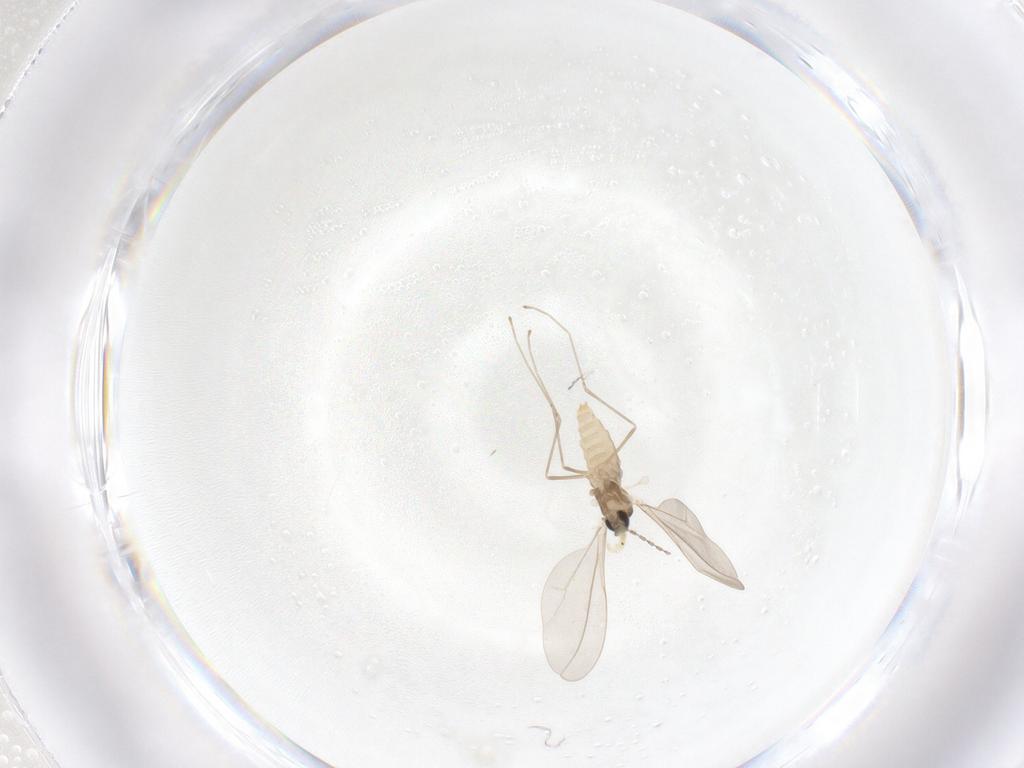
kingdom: Animalia
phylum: Arthropoda
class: Insecta
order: Diptera
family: Cecidomyiidae
